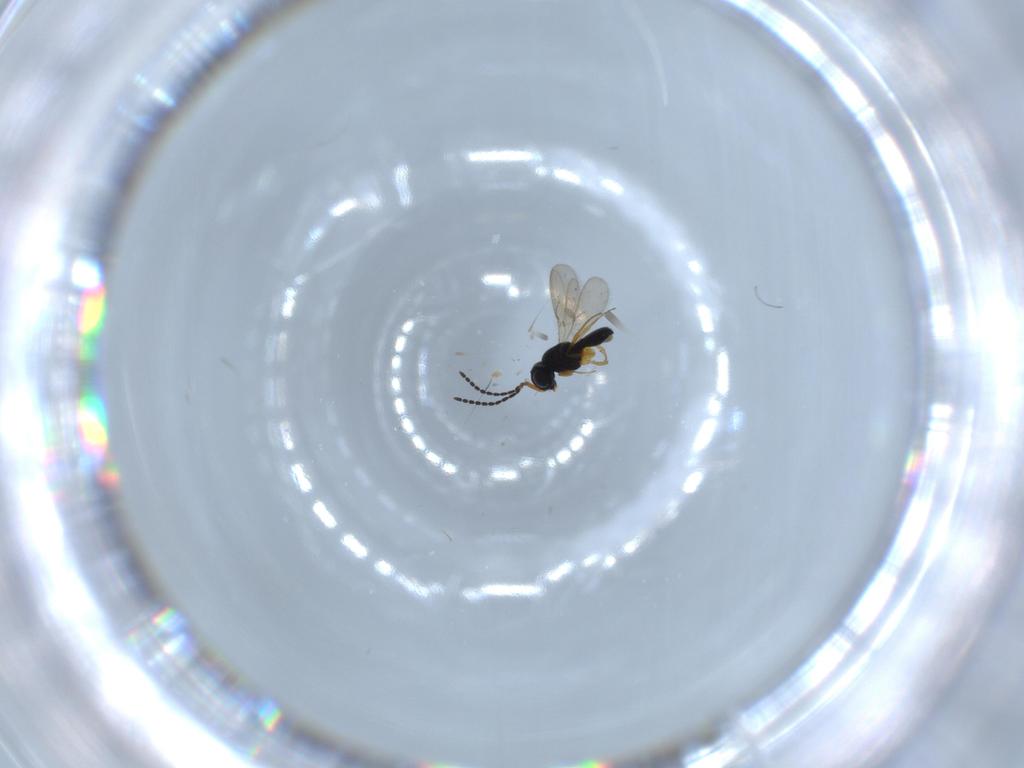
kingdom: Animalia
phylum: Arthropoda
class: Insecta
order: Hymenoptera
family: Scelionidae
